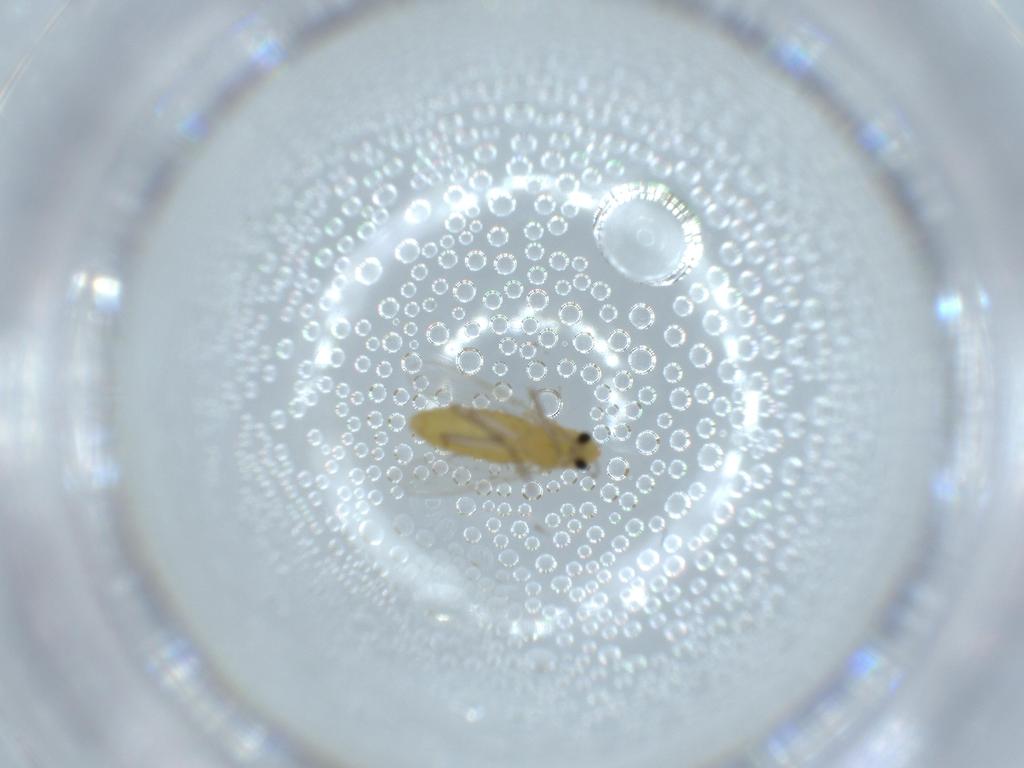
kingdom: Animalia
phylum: Arthropoda
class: Insecta
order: Diptera
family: Chironomidae
